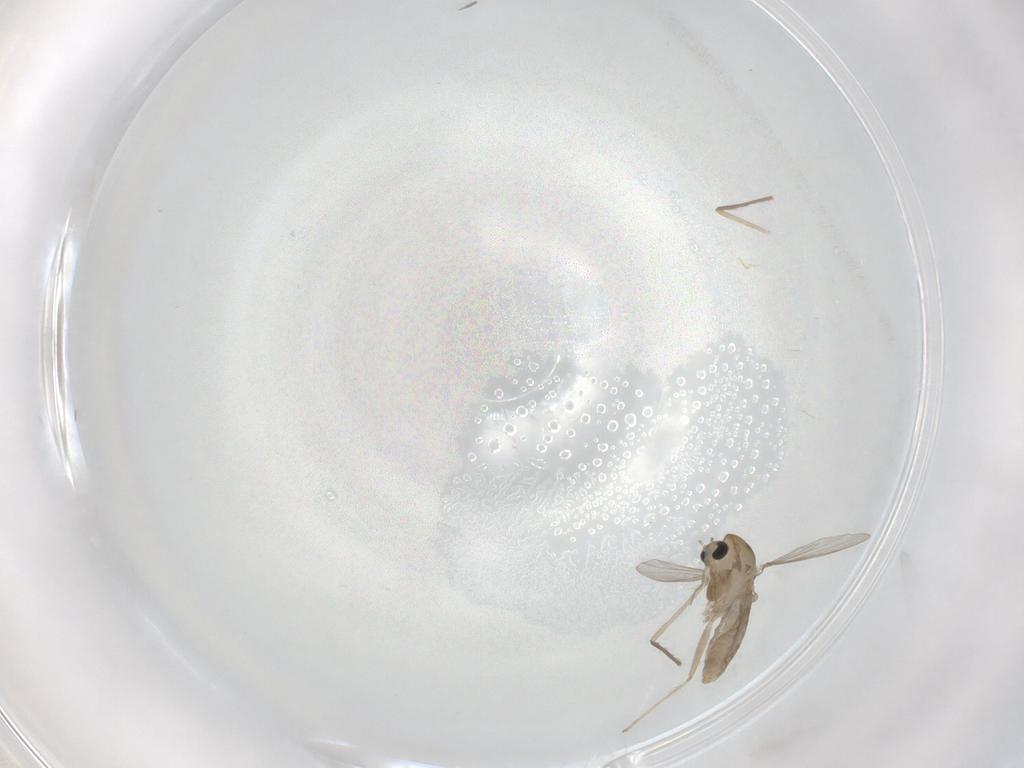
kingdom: Animalia
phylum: Arthropoda
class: Insecta
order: Diptera
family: Chironomidae
